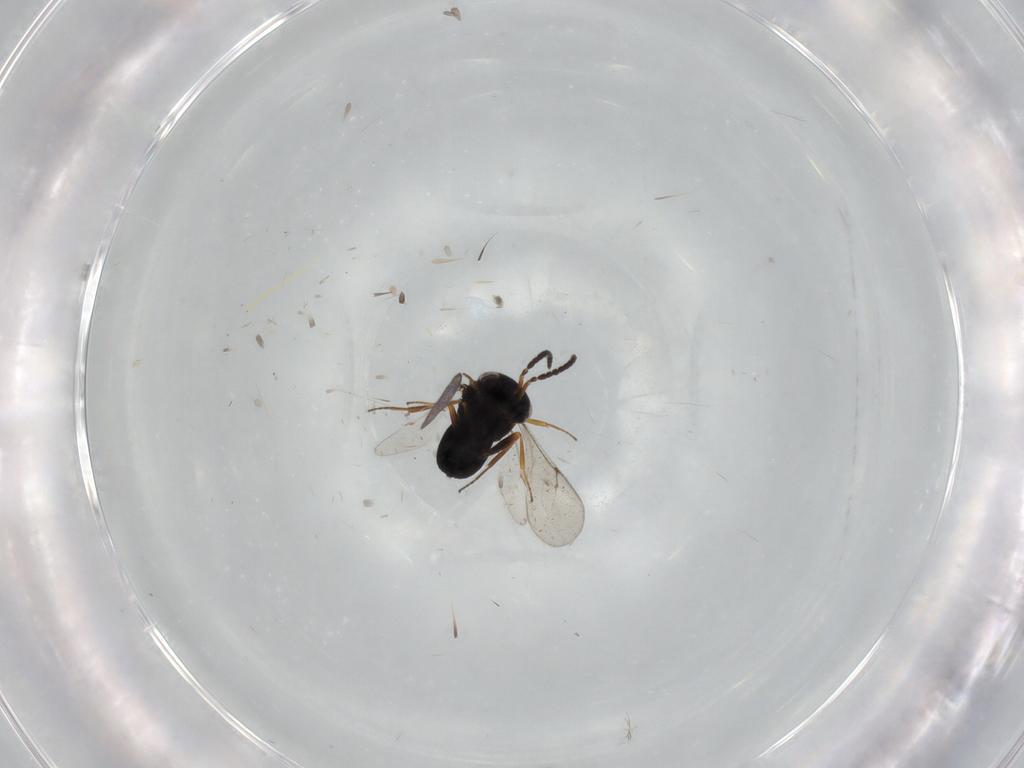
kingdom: Animalia
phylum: Arthropoda
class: Insecta
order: Hymenoptera
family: Scelionidae
